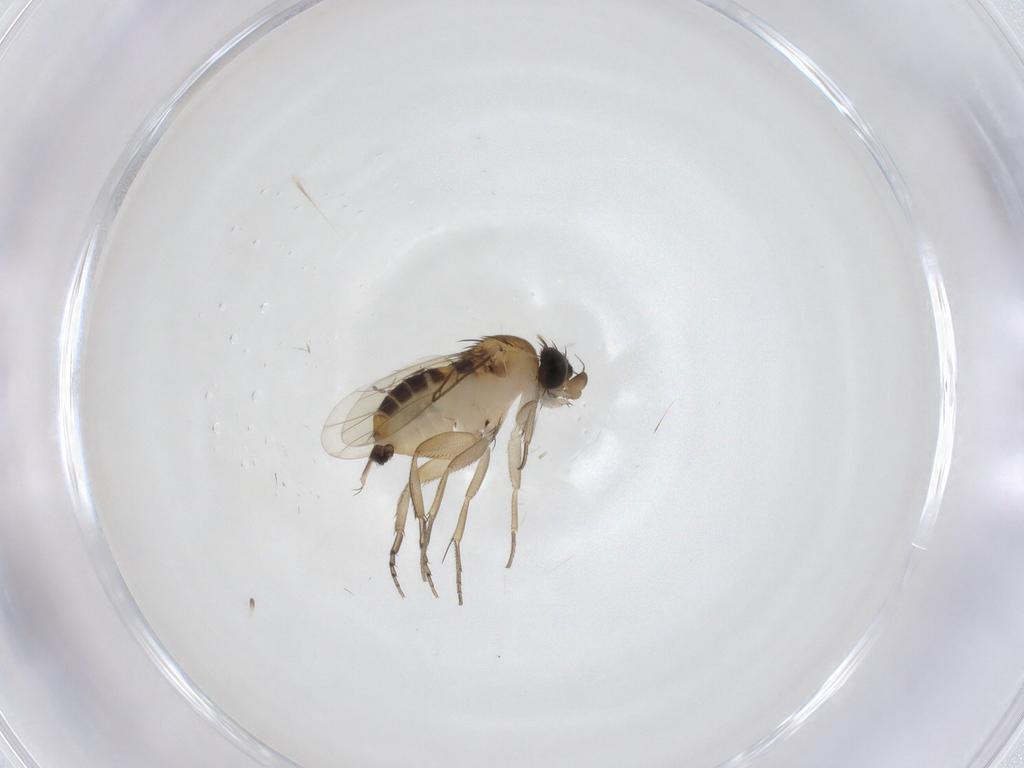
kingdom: Animalia
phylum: Arthropoda
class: Insecta
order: Diptera
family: Phoridae
